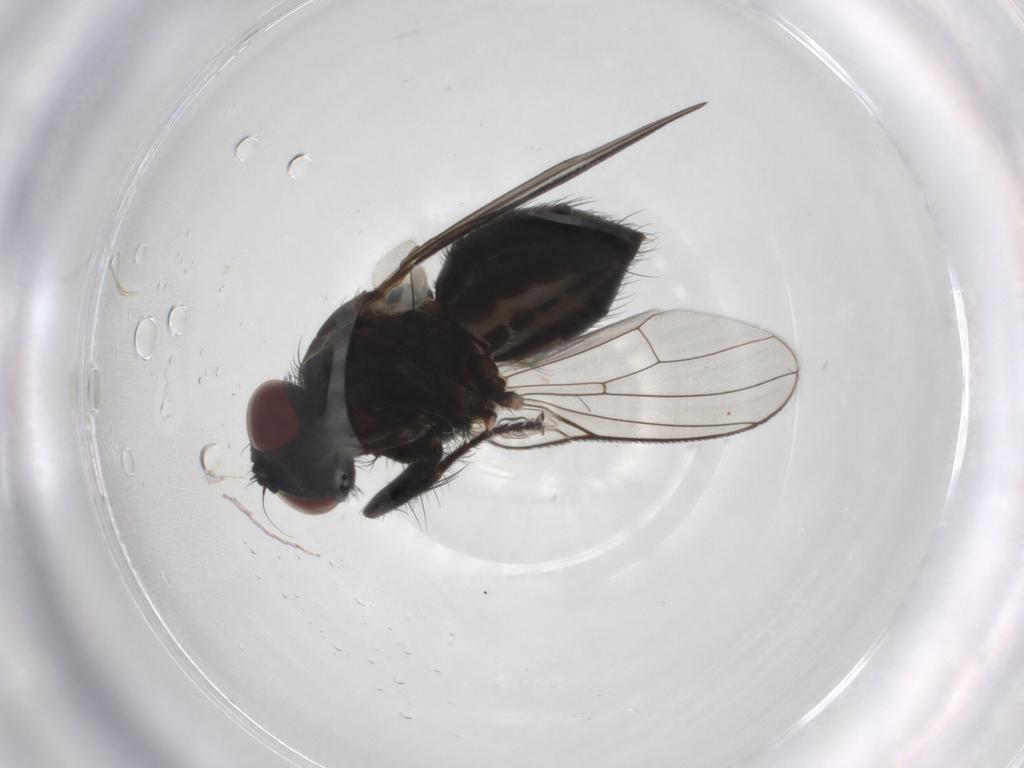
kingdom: Animalia
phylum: Arthropoda
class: Insecta
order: Diptera
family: Muscidae
